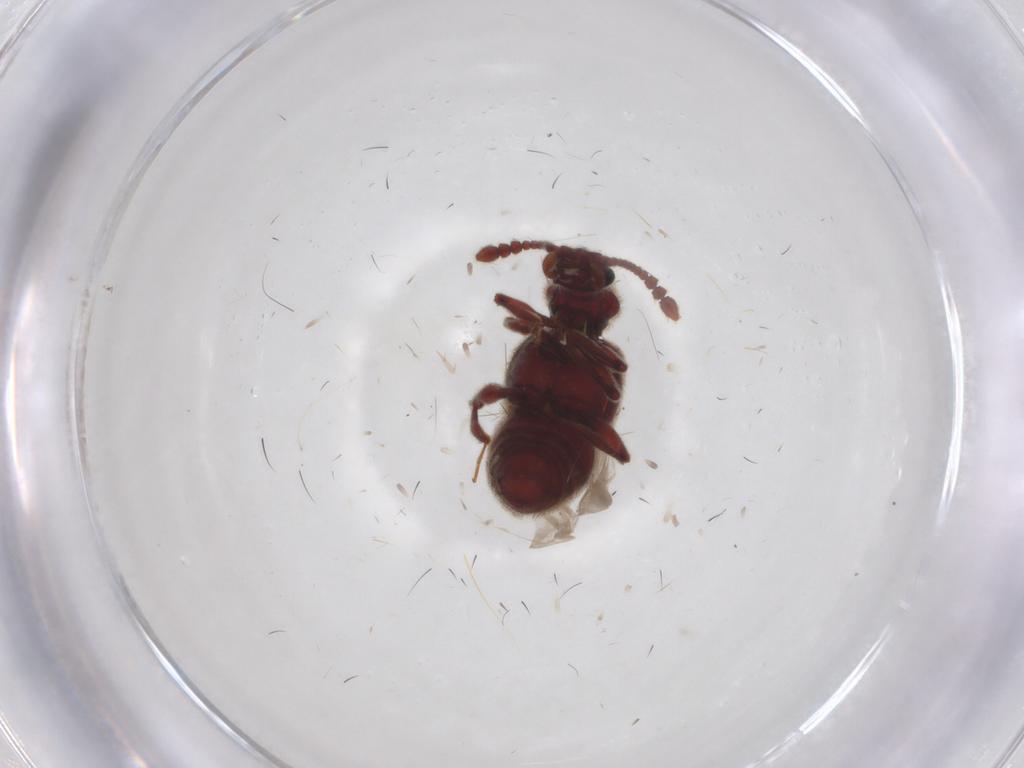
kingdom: Animalia
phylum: Arthropoda
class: Insecta
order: Coleoptera
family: Staphylinidae
